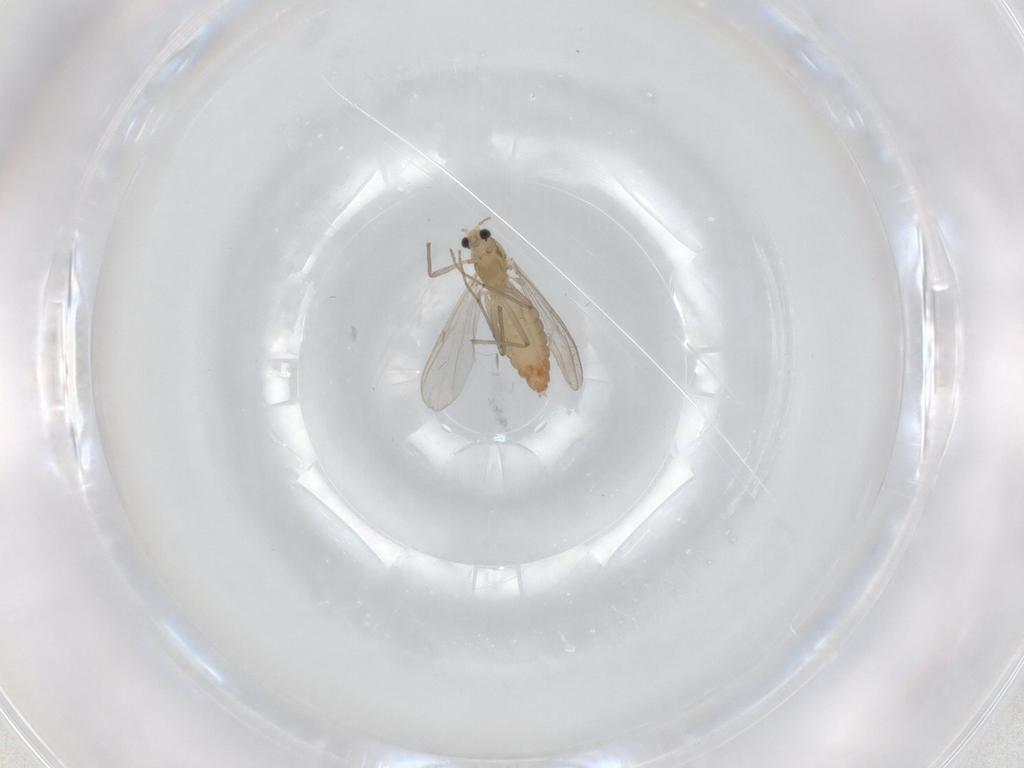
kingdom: Animalia
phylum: Arthropoda
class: Insecta
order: Diptera
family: Chironomidae
